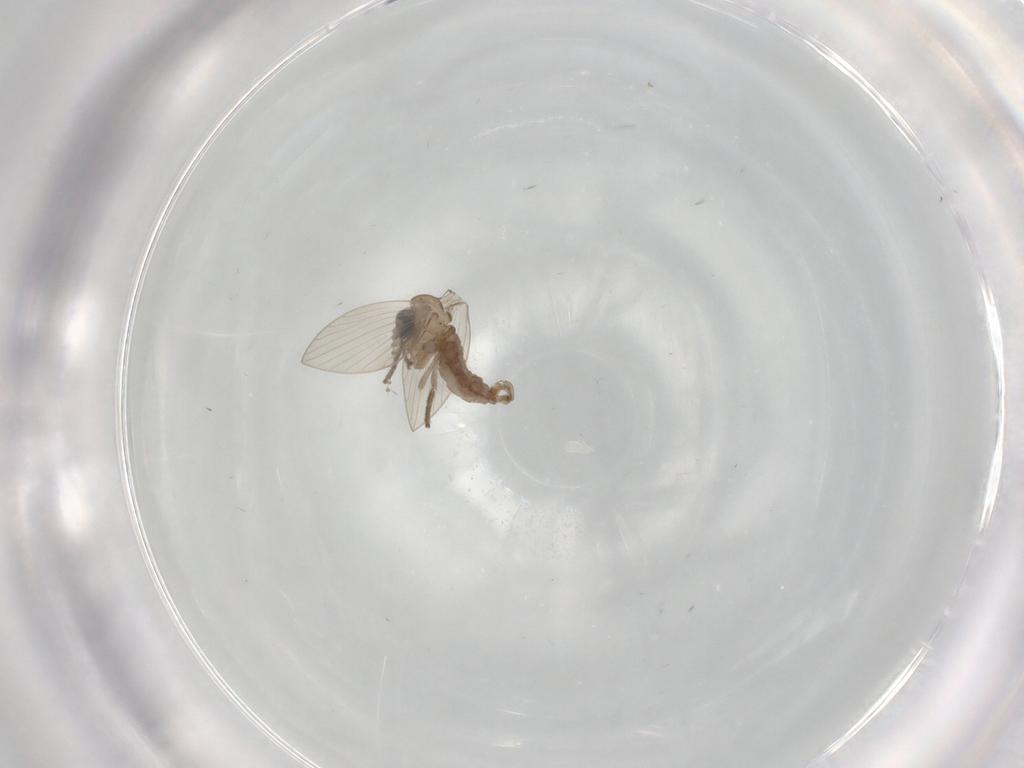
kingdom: Animalia
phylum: Arthropoda
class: Insecta
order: Diptera
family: Psychodidae
